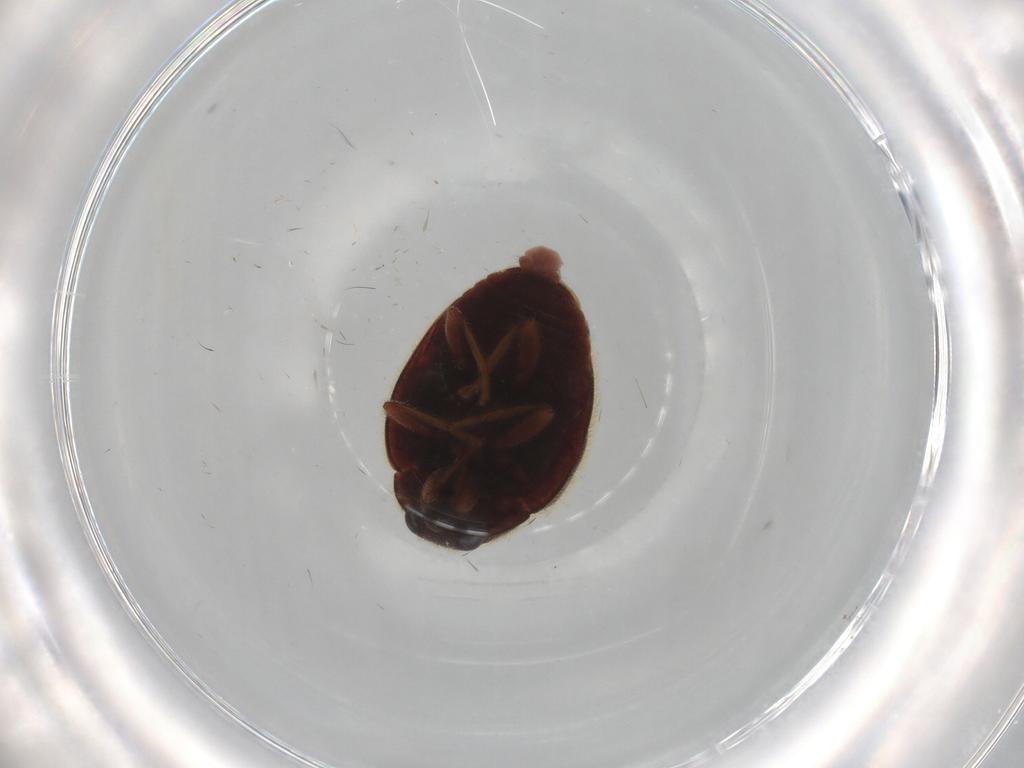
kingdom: Animalia
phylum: Arthropoda
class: Insecta
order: Coleoptera
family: Coccinellidae
